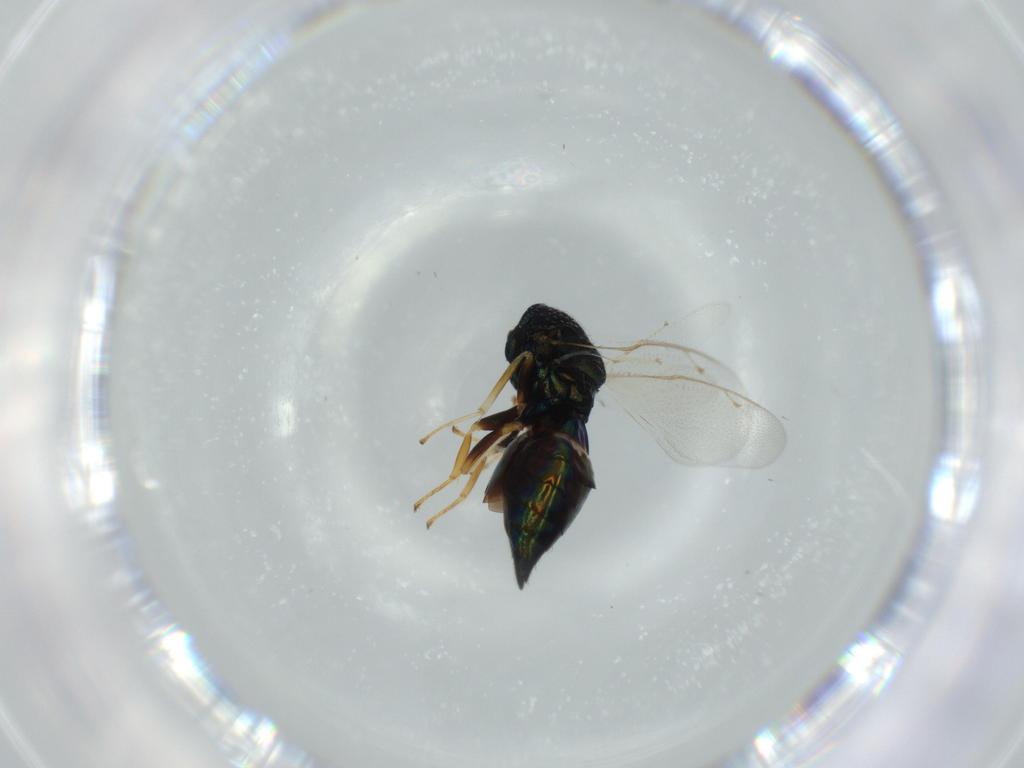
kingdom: Animalia
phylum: Arthropoda
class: Insecta
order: Hymenoptera
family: Pteromalidae
